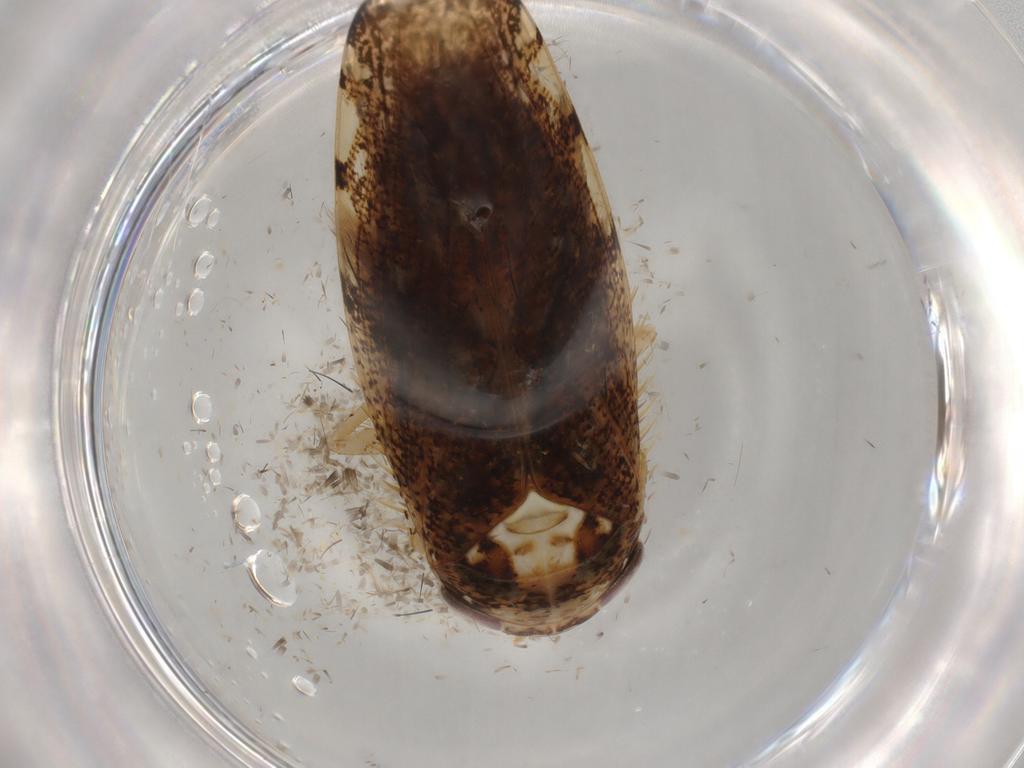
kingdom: Animalia
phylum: Arthropoda
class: Insecta
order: Hemiptera
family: Cicadellidae
